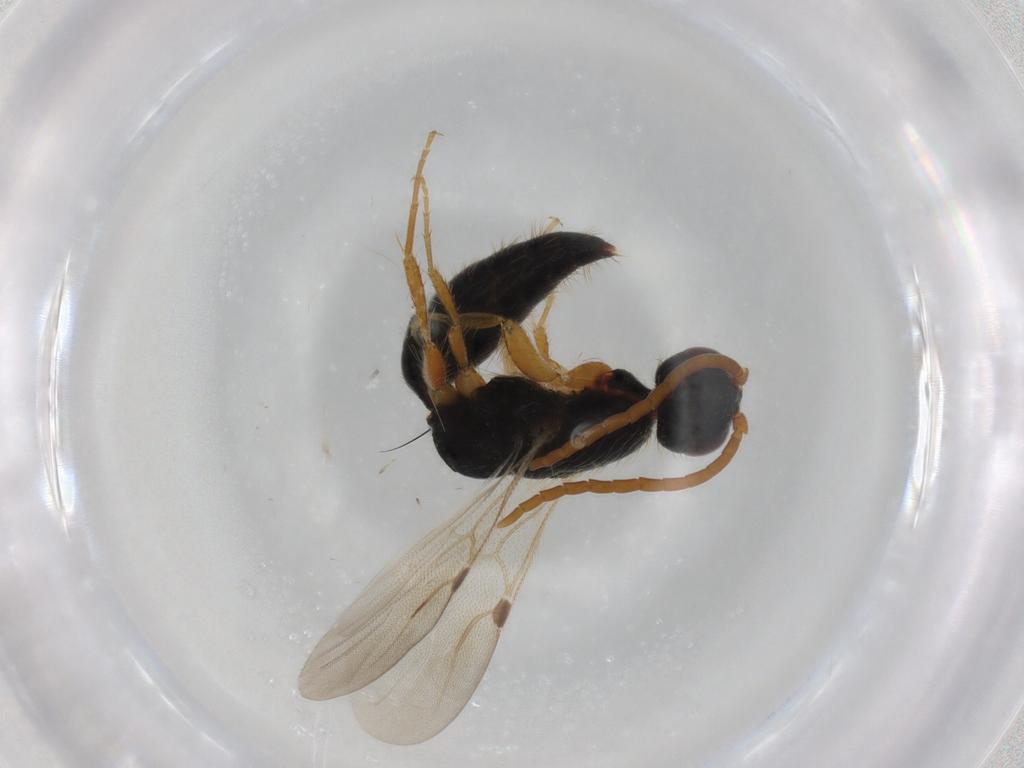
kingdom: Animalia
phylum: Arthropoda
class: Insecta
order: Hymenoptera
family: Bethylidae
